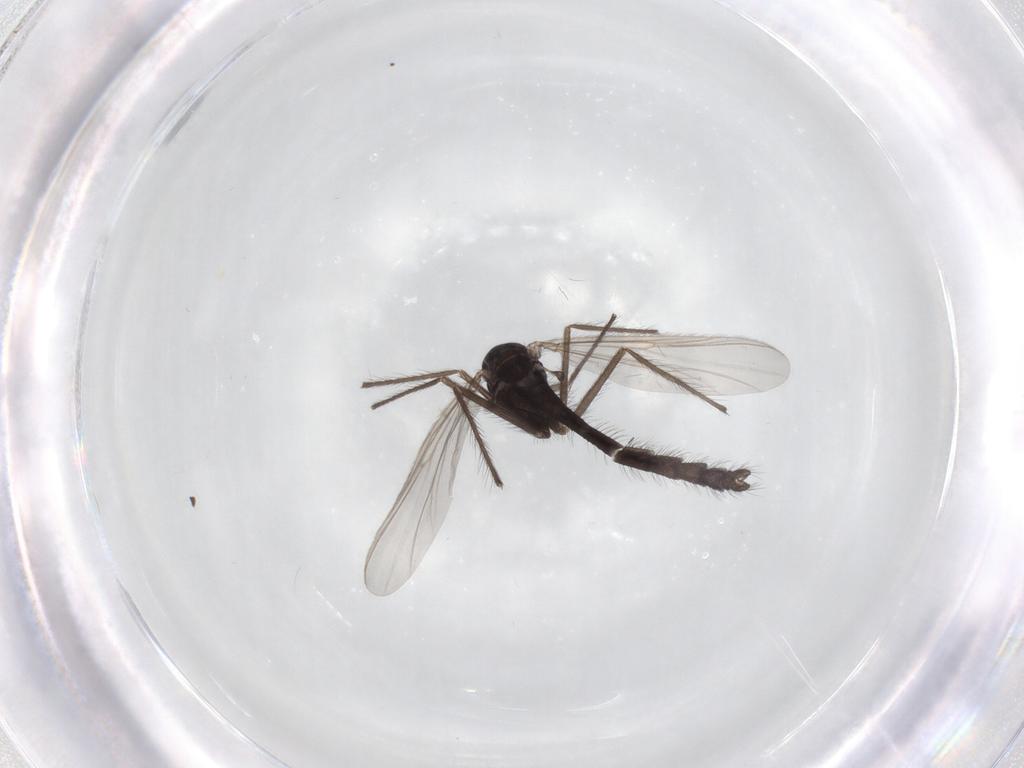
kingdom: Animalia
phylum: Arthropoda
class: Insecta
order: Diptera
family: Chironomidae
